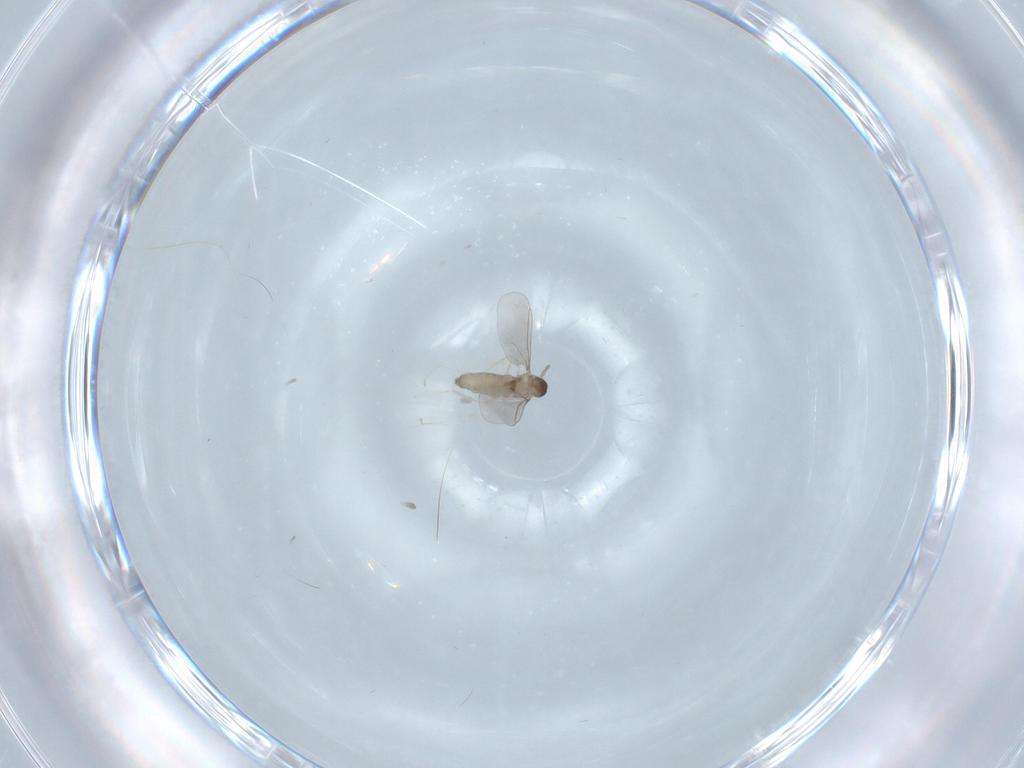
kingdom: Animalia
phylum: Arthropoda
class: Insecta
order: Diptera
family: Cecidomyiidae
